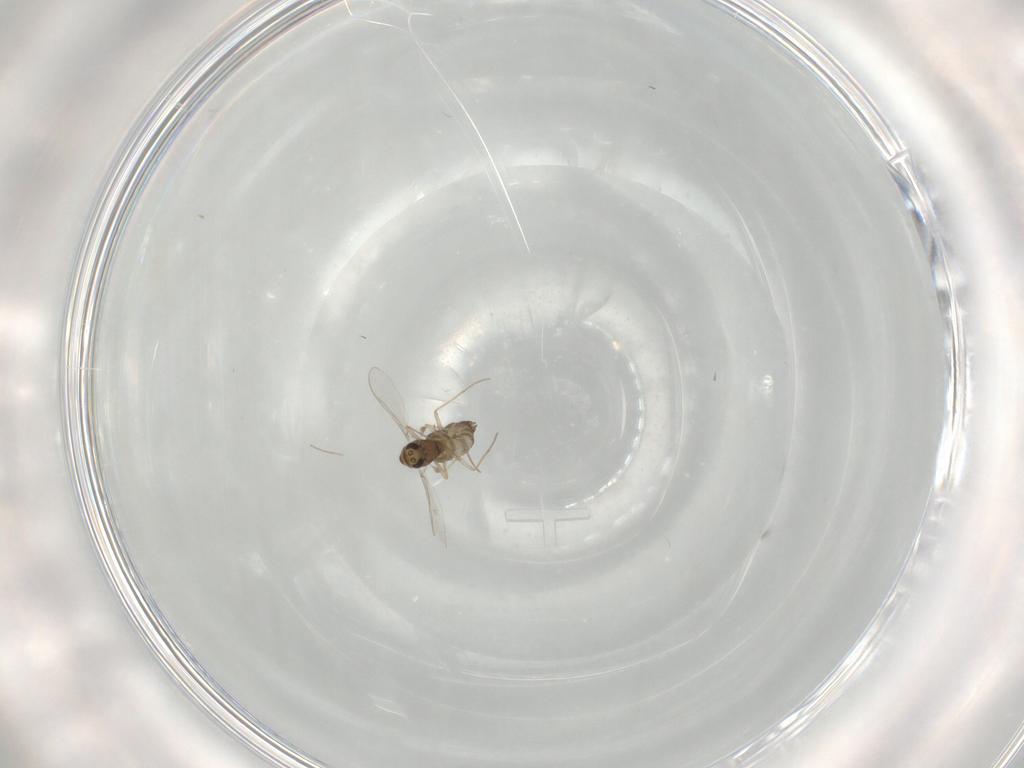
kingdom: Animalia
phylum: Arthropoda
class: Insecta
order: Diptera
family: Chironomidae
